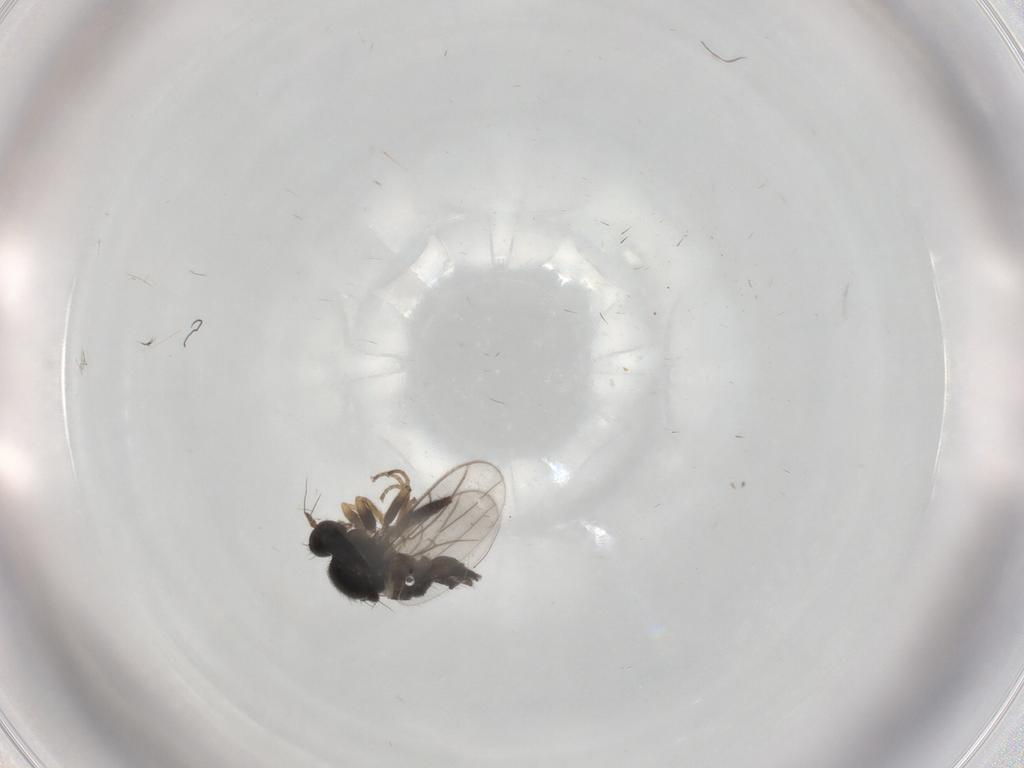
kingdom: Animalia
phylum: Arthropoda
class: Insecta
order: Diptera
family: Hybotidae
